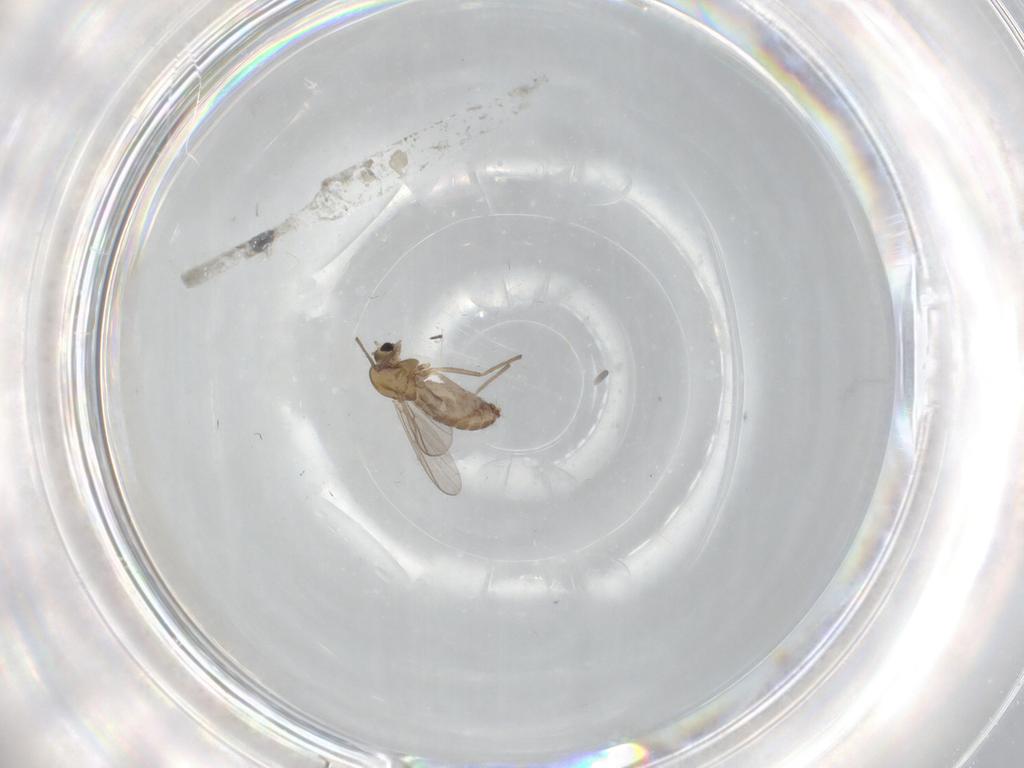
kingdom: Animalia
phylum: Arthropoda
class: Insecta
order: Diptera
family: Chironomidae
